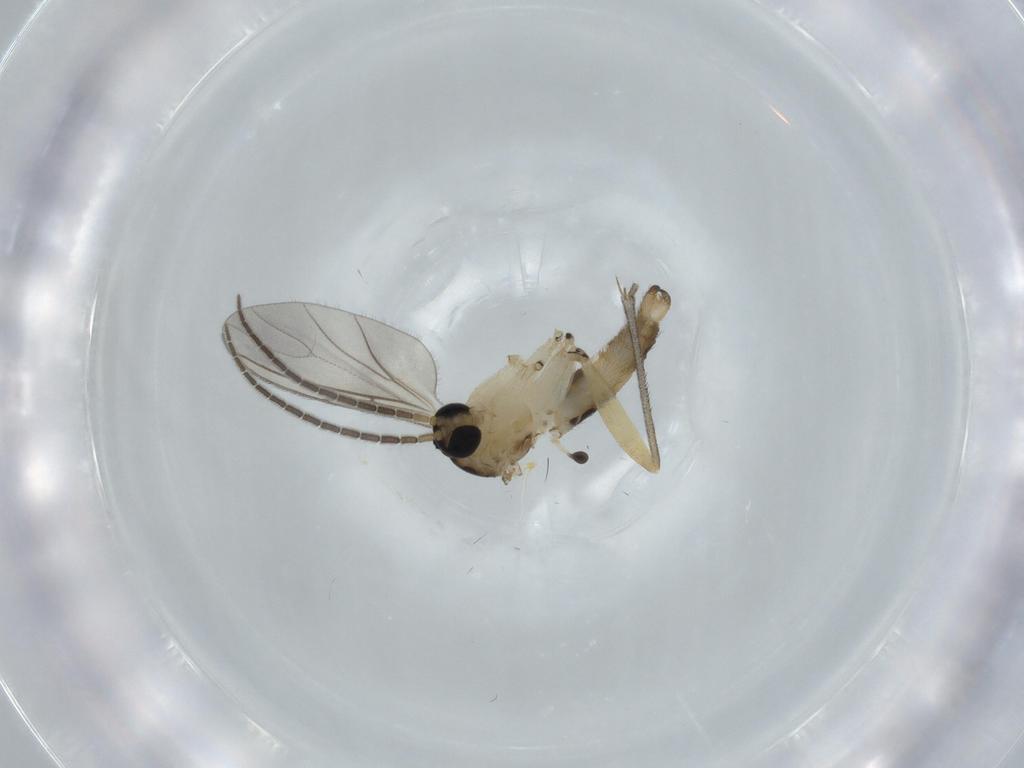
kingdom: Animalia
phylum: Arthropoda
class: Insecta
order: Diptera
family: Sciaridae
